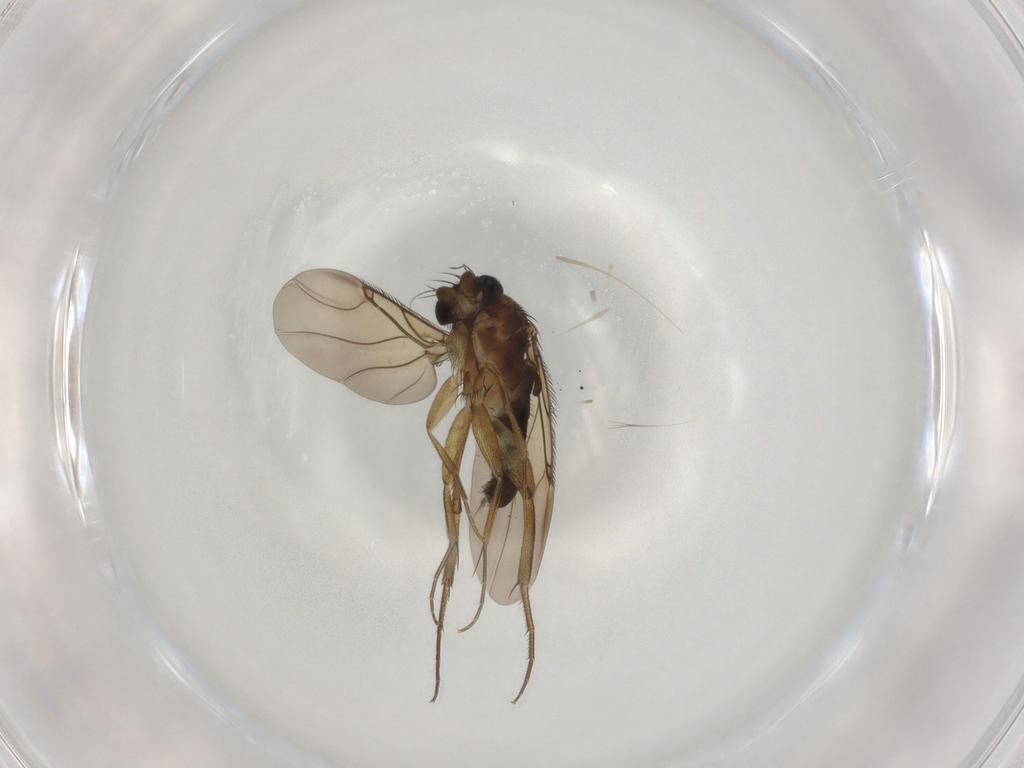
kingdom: Animalia
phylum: Arthropoda
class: Insecta
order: Diptera
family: Phoridae
